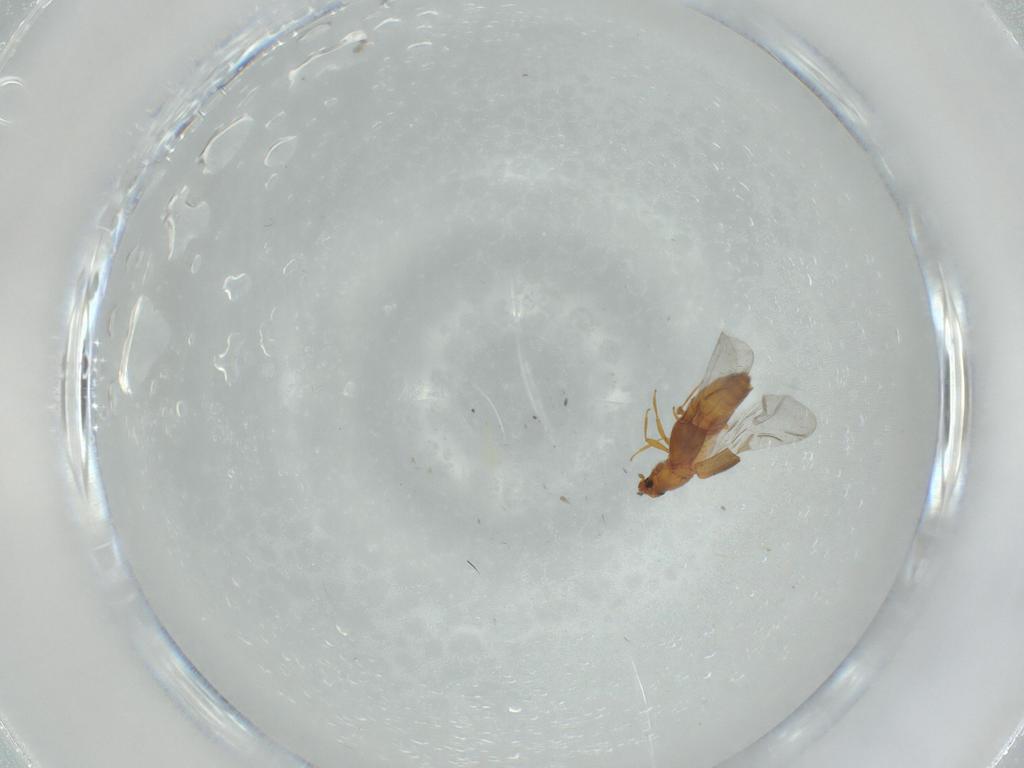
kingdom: Animalia
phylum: Arthropoda
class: Insecta
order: Coleoptera
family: Staphylinidae
